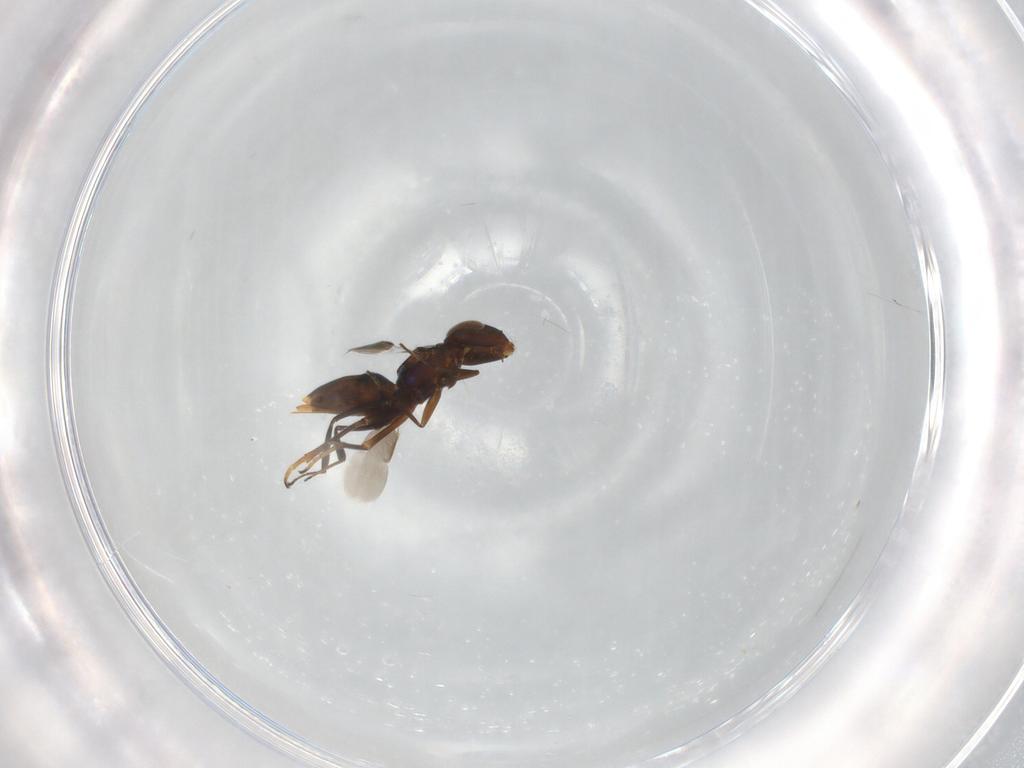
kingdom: Animalia
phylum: Arthropoda
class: Insecta
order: Hymenoptera
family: Encyrtidae
